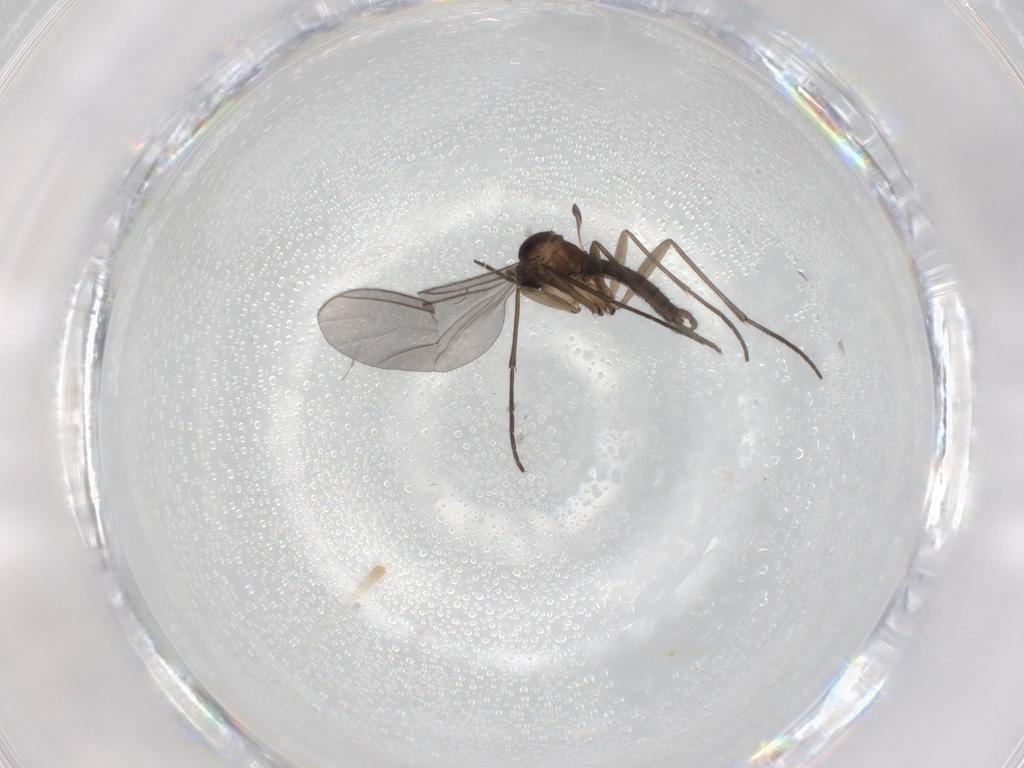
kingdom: Animalia
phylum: Arthropoda
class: Insecta
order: Diptera
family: Sciaridae
